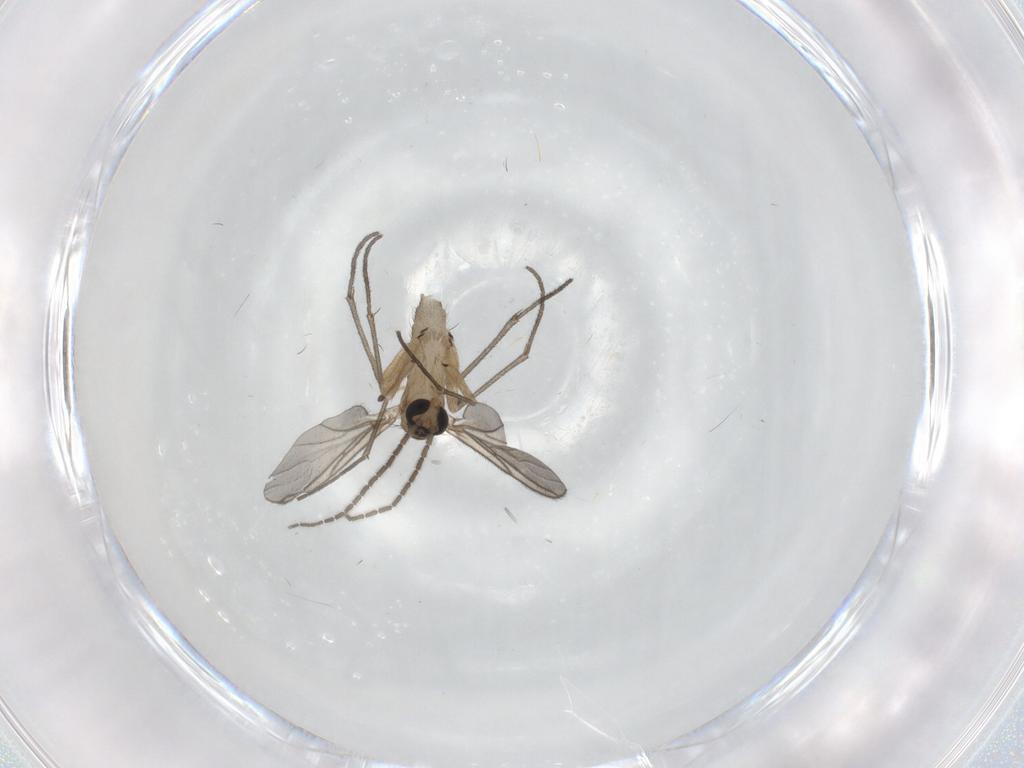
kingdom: Animalia
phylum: Arthropoda
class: Insecta
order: Diptera
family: Sciaridae
